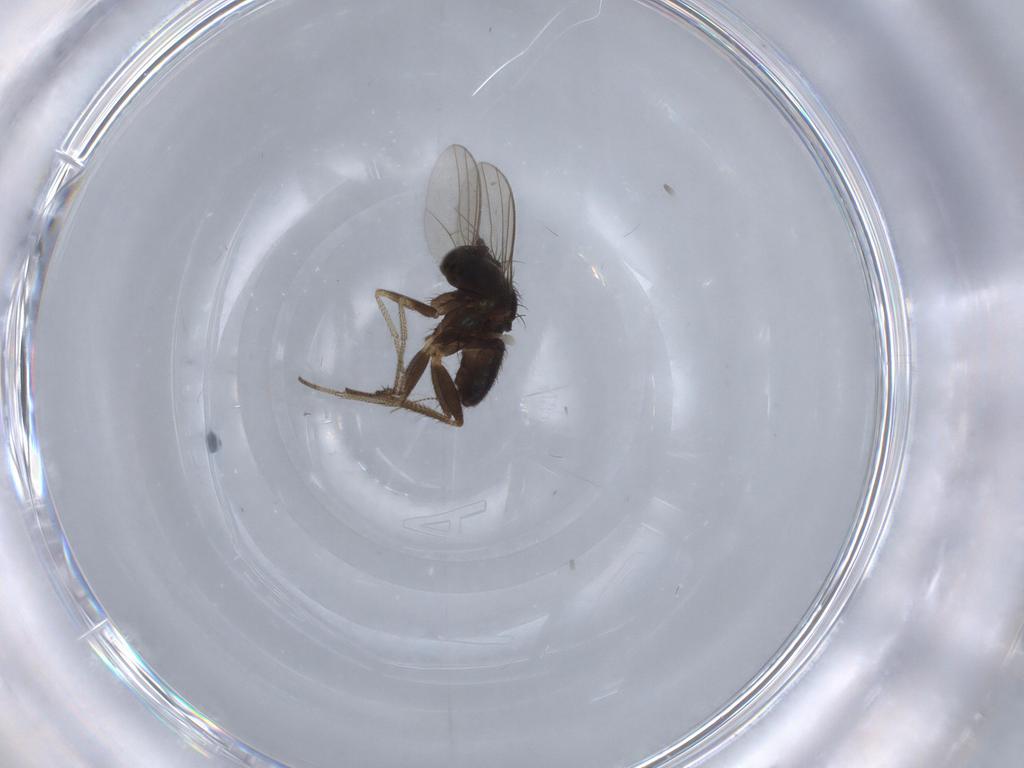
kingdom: Animalia
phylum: Arthropoda
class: Insecta
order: Diptera
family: Cecidomyiidae
